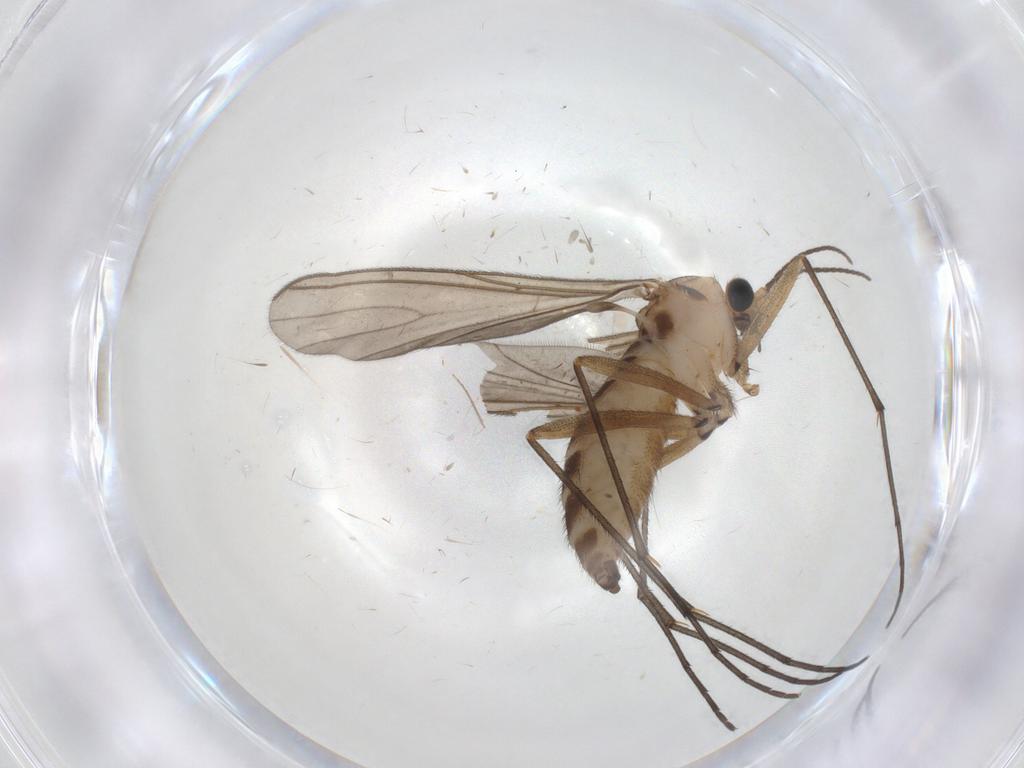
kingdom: Animalia
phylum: Arthropoda
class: Insecta
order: Diptera
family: Sciaridae
